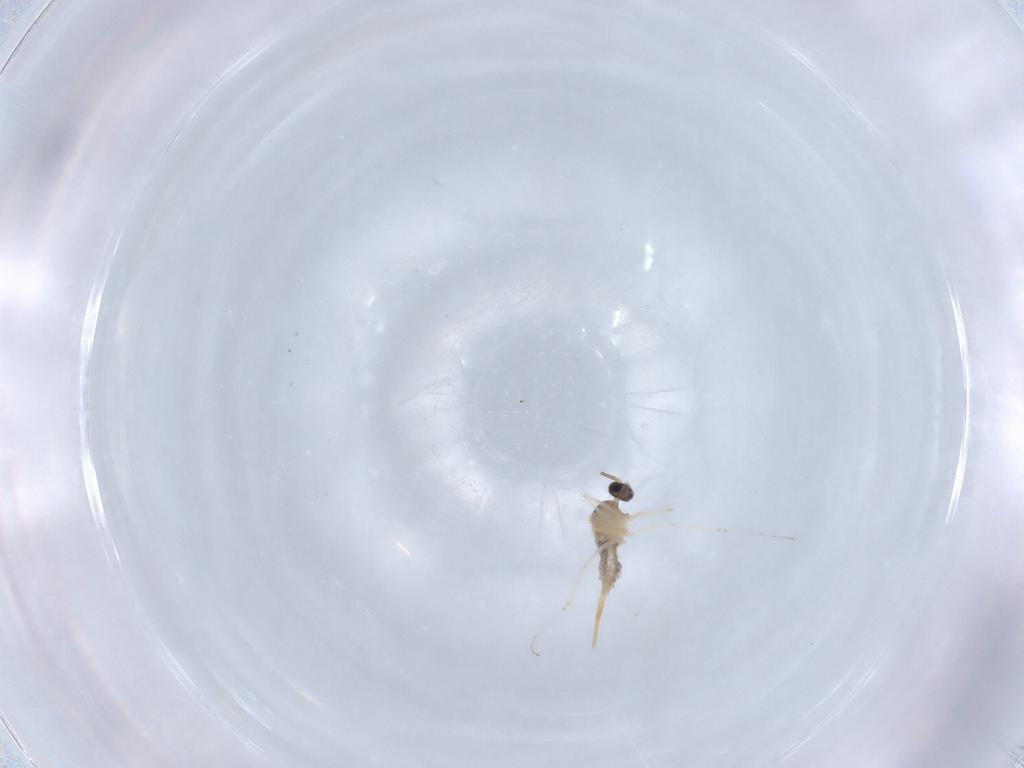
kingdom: Animalia
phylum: Arthropoda
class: Insecta
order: Diptera
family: Cecidomyiidae
